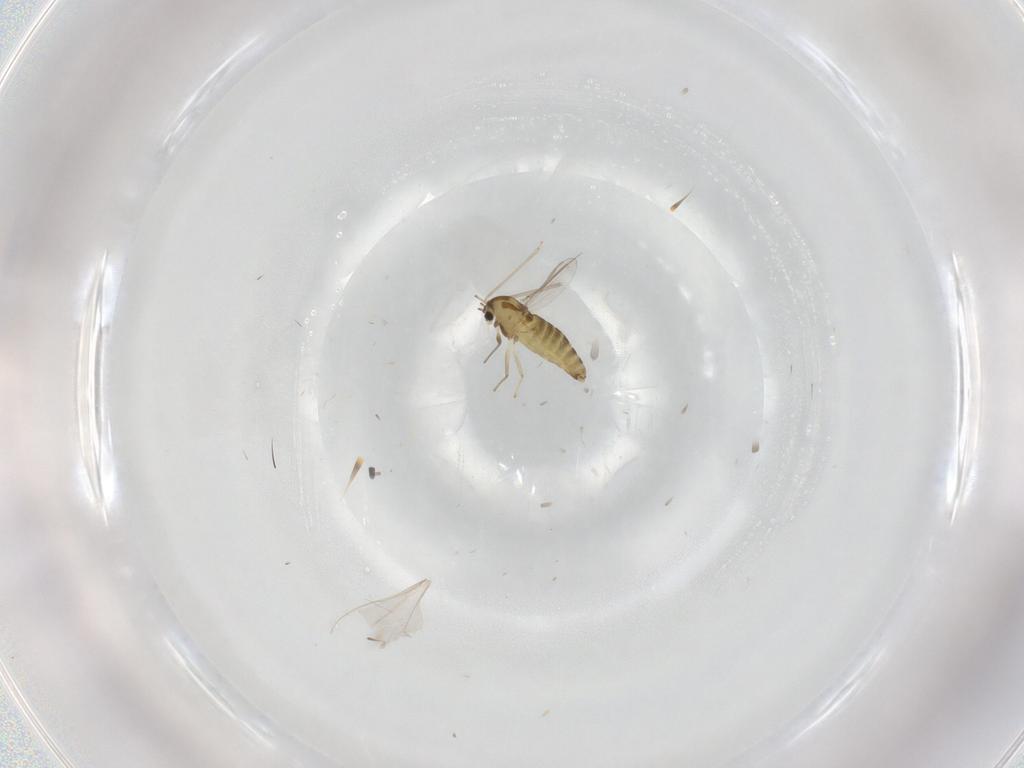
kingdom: Animalia
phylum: Arthropoda
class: Insecta
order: Diptera
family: Chironomidae
